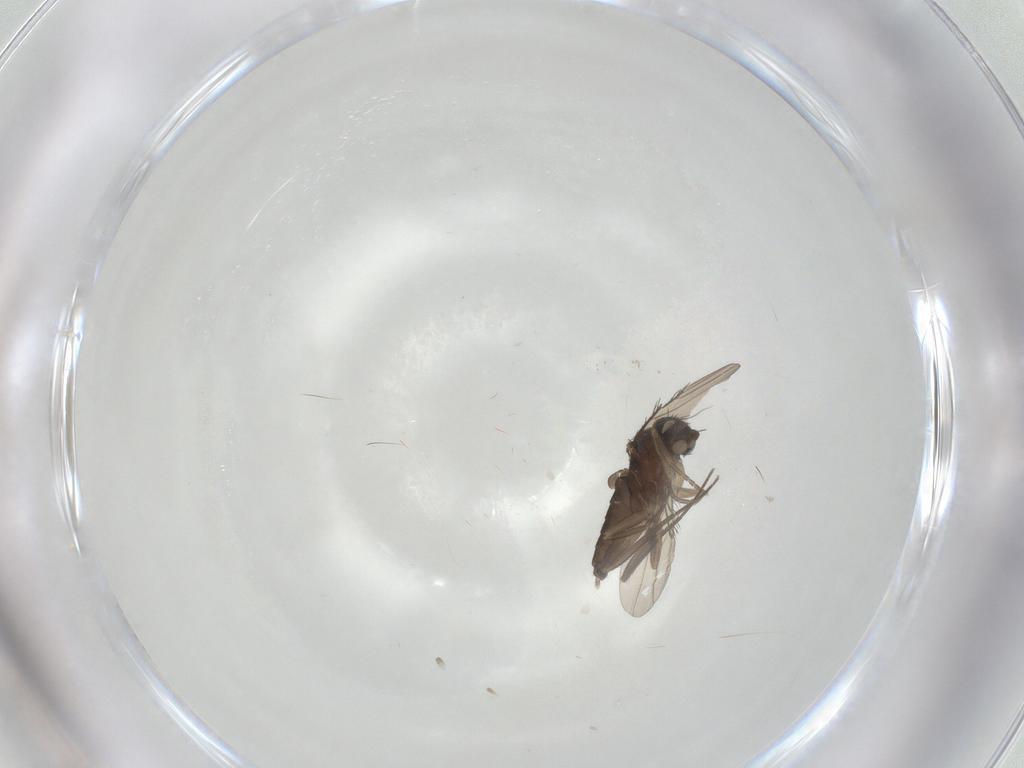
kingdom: Animalia
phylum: Arthropoda
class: Insecta
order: Diptera
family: Phoridae
